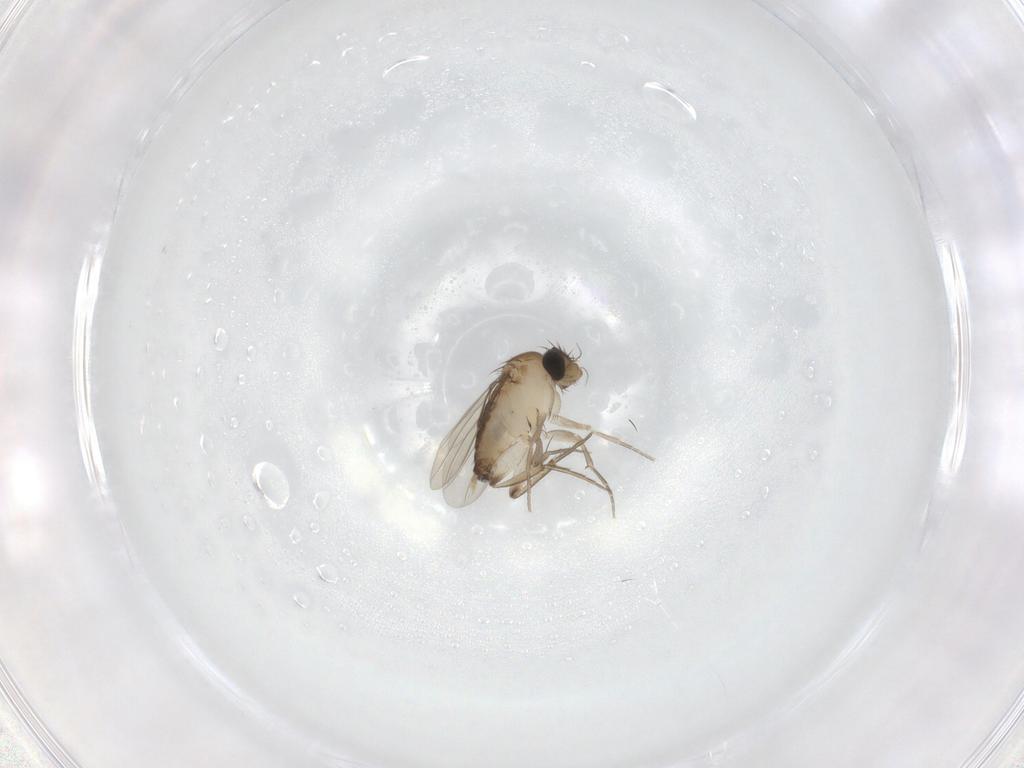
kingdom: Animalia
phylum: Arthropoda
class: Insecta
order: Diptera
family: Phoridae
